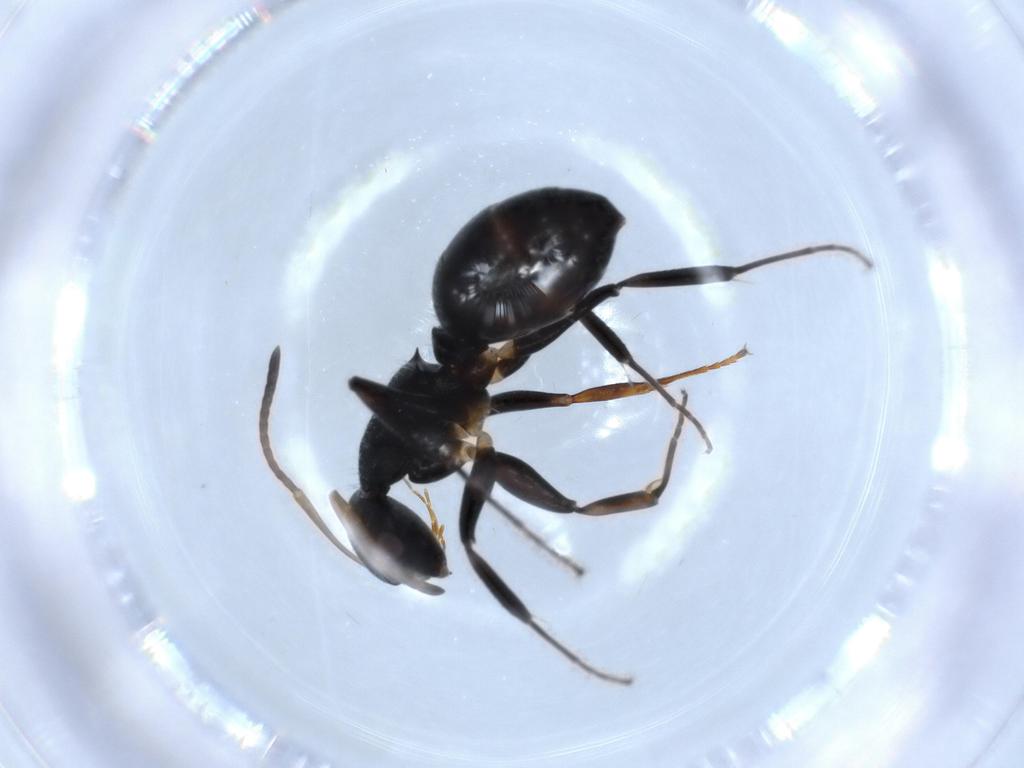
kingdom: Animalia
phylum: Arthropoda
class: Insecta
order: Hymenoptera
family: Formicidae
